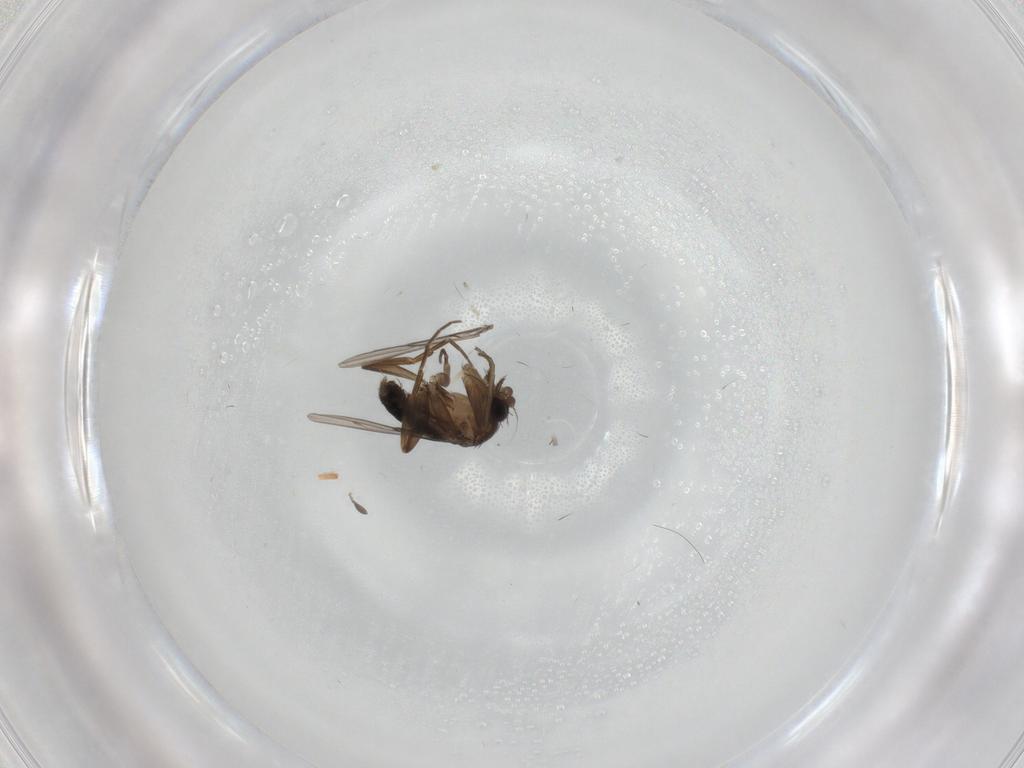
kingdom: Animalia
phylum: Arthropoda
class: Insecta
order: Diptera
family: Phoridae
